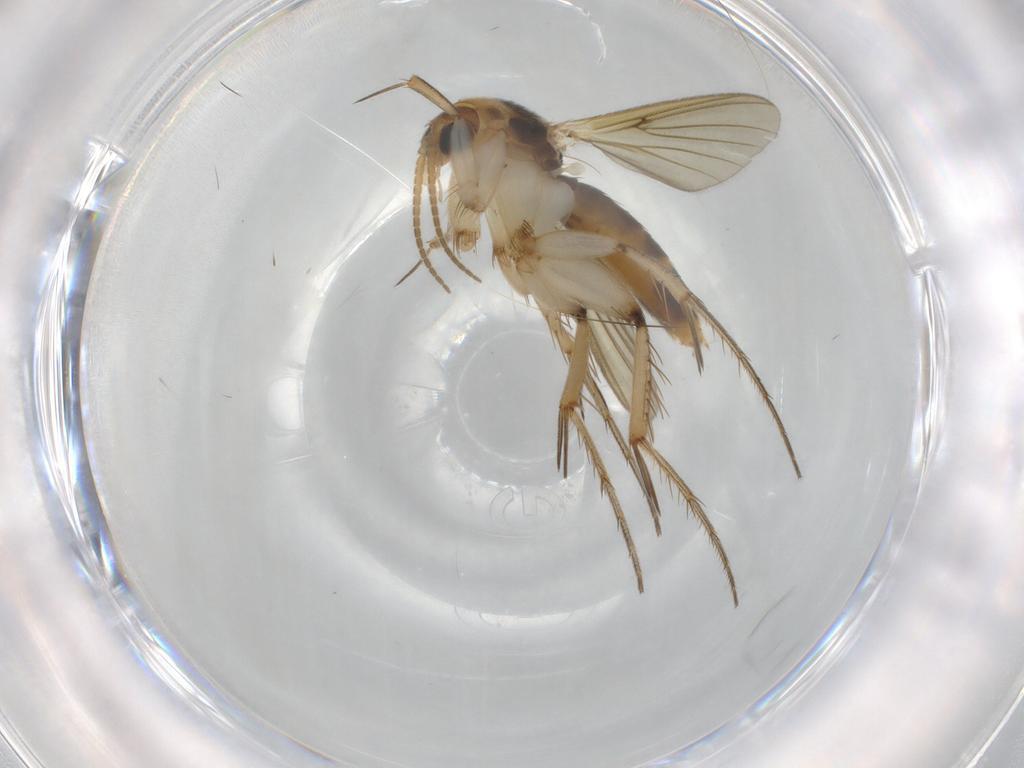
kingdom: Animalia
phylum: Arthropoda
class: Insecta
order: Diptera
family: Mycetophilidae
